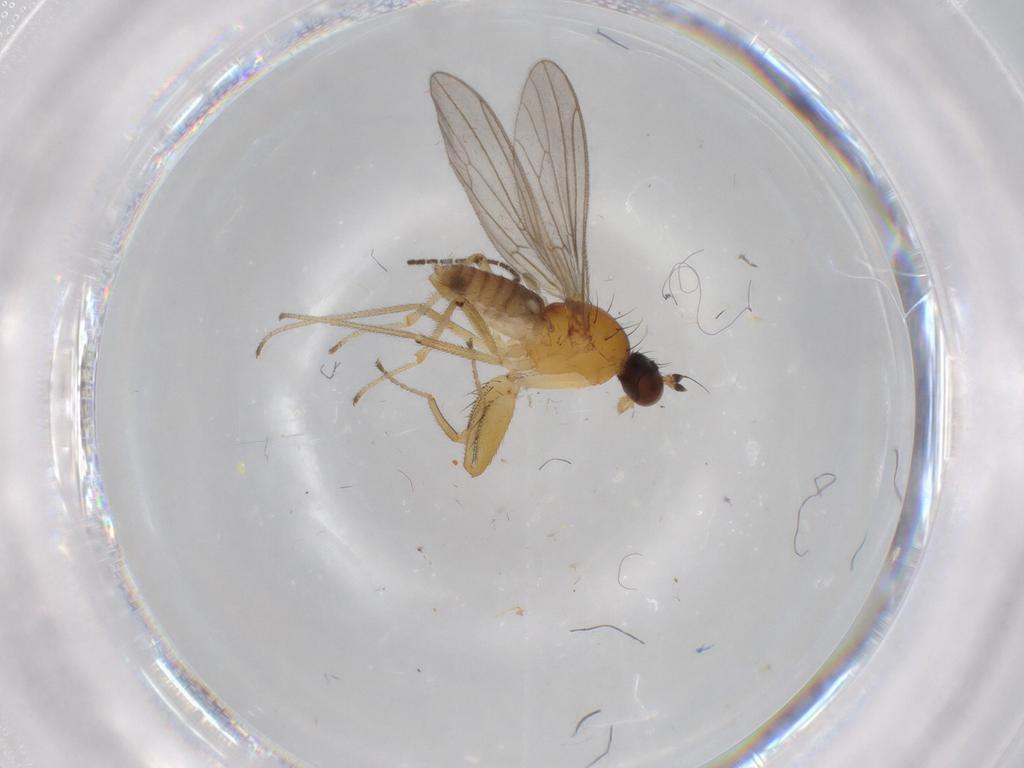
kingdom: Animalia
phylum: Arthropoda
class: Insecta
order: Diptera
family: Empididae
